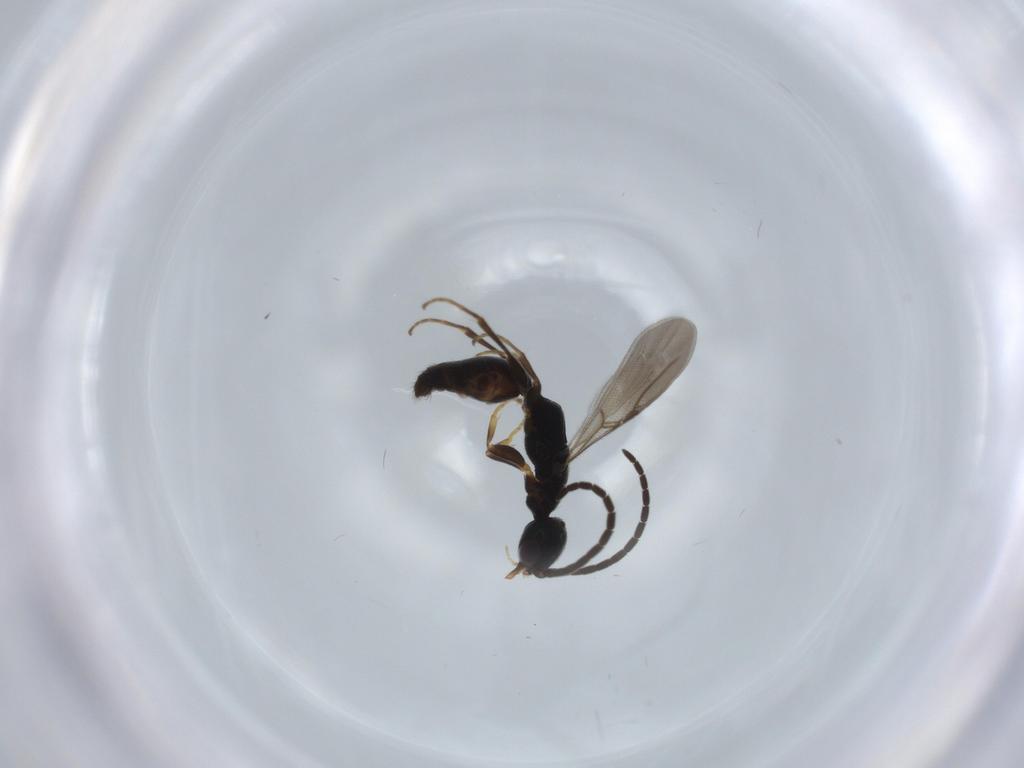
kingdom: Animalia
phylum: Arthropoda
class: Insecta
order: Hymenoptera
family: Bethylidae
